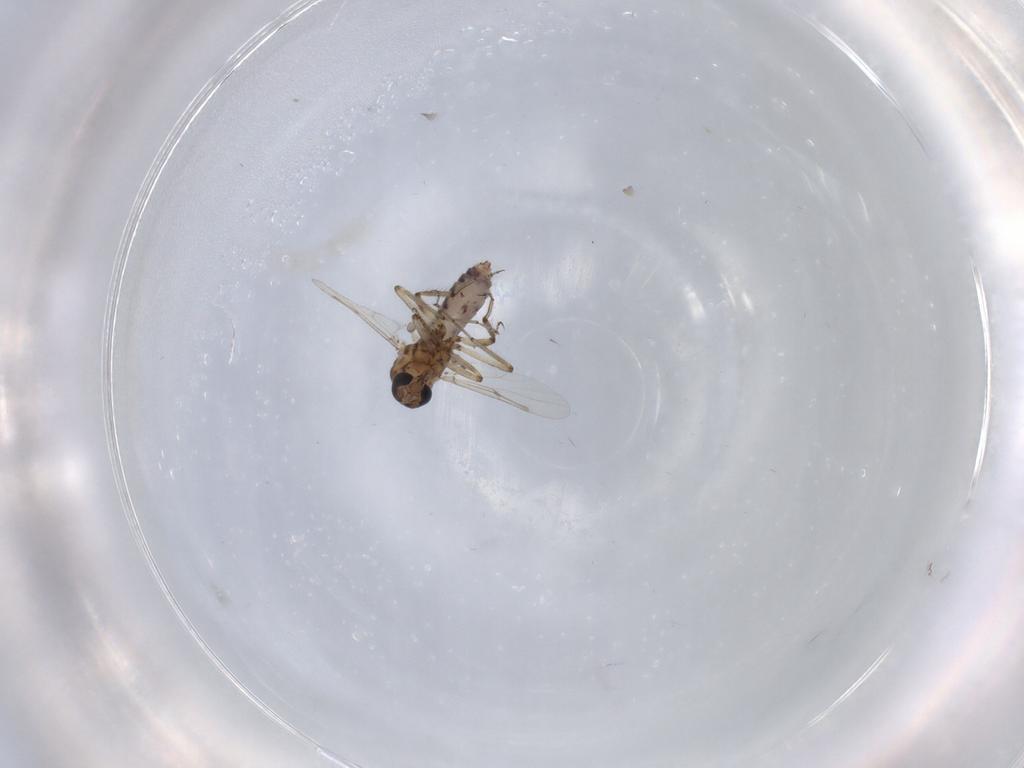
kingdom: Animalia
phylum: Arthropoda
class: Insecta
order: Diptera
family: Ceratopogonidae
